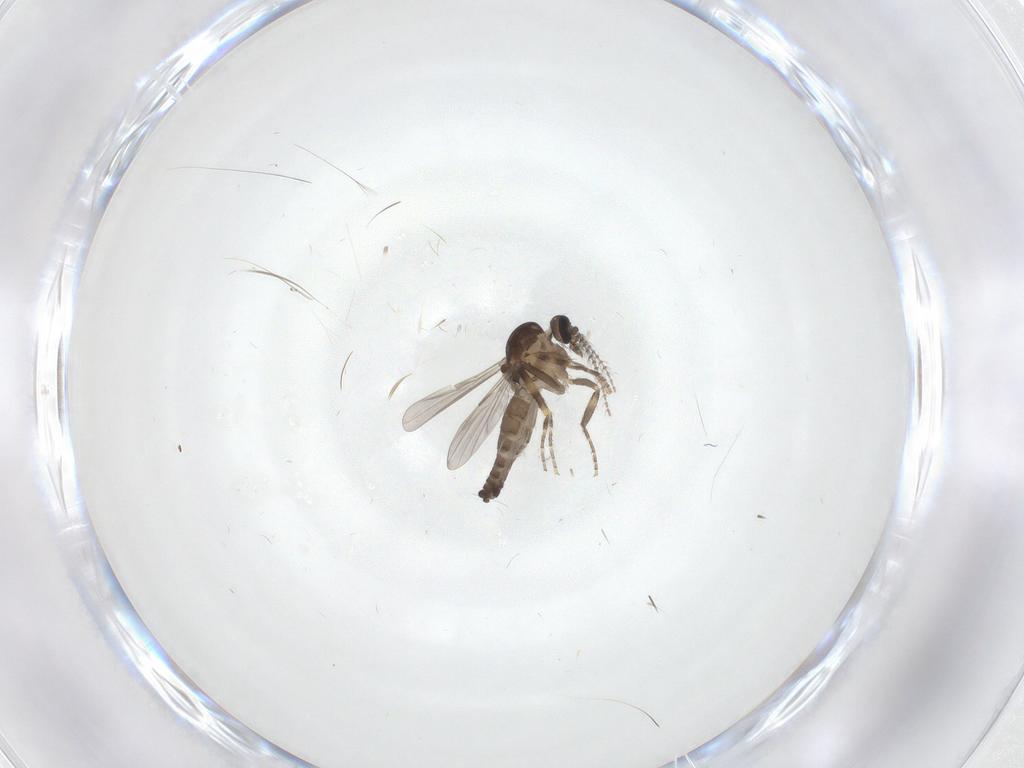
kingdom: Animalia
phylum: Arthropoda
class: Insecta
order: Diptera
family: Ceratopogonidae
